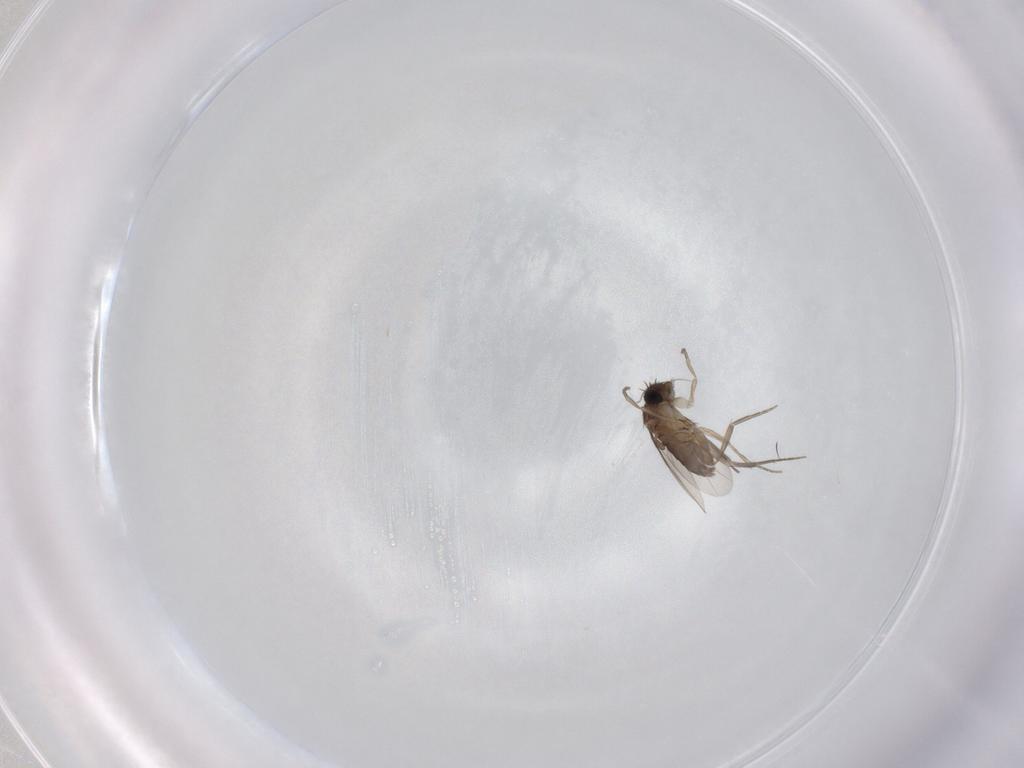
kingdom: Animalia
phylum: Arthropoda
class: Insecta
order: Diptera
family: Phoridae
